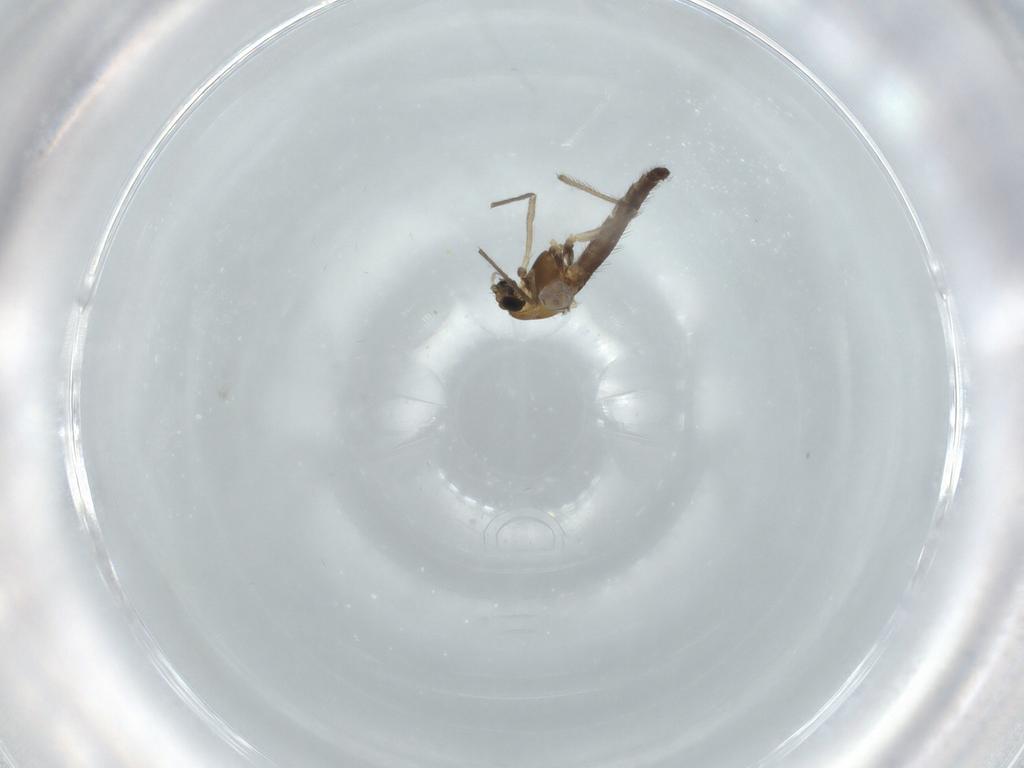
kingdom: Animalia
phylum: Arthropoda
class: Insecta
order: Diptera
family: Chironomidae
